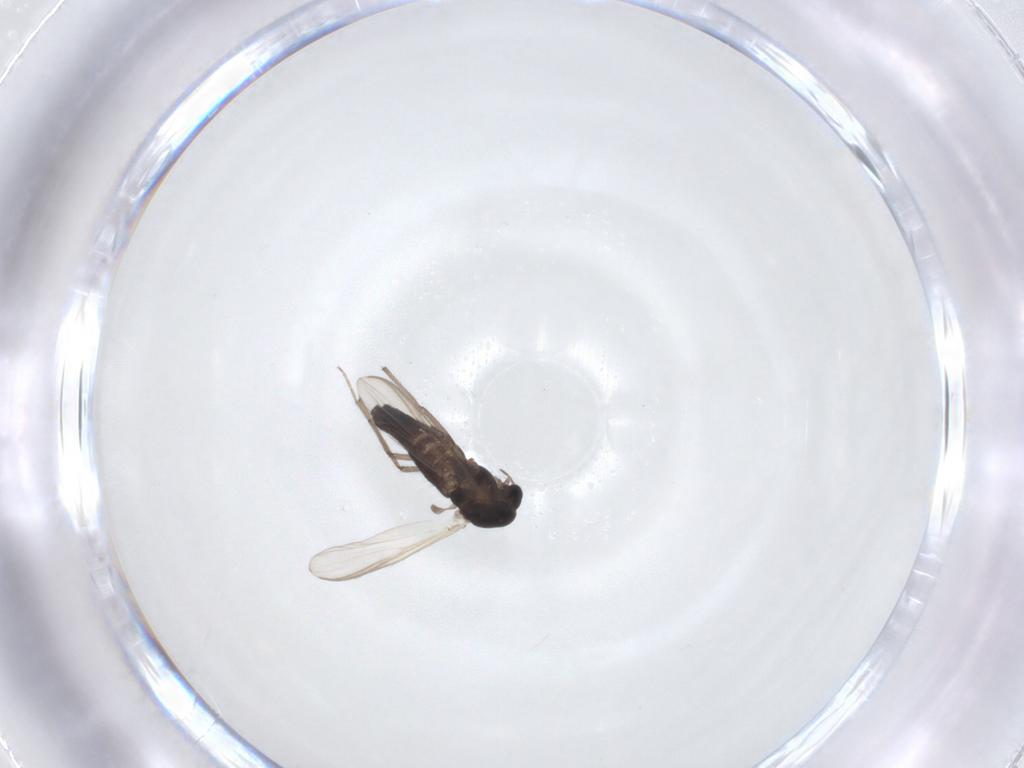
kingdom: Animalia
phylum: Arthropoda
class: Insecta
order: Diptera
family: Chironomidae
